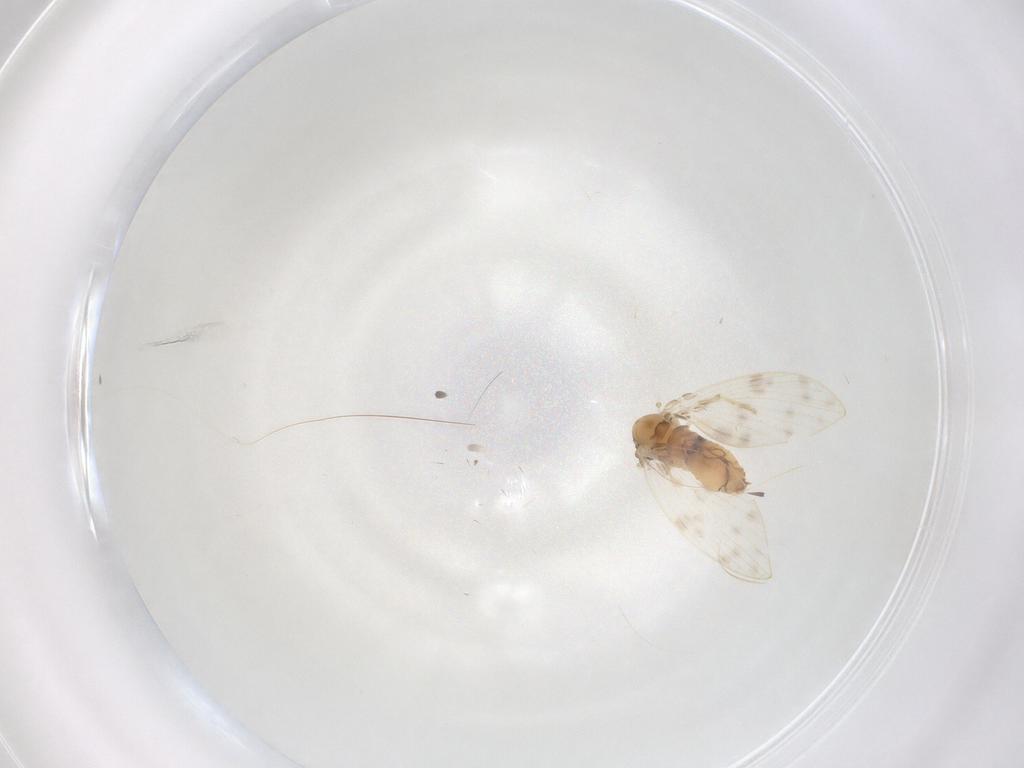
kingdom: Animalia
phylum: Arthropoda
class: Insecta
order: Diptera
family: Psychodidae
